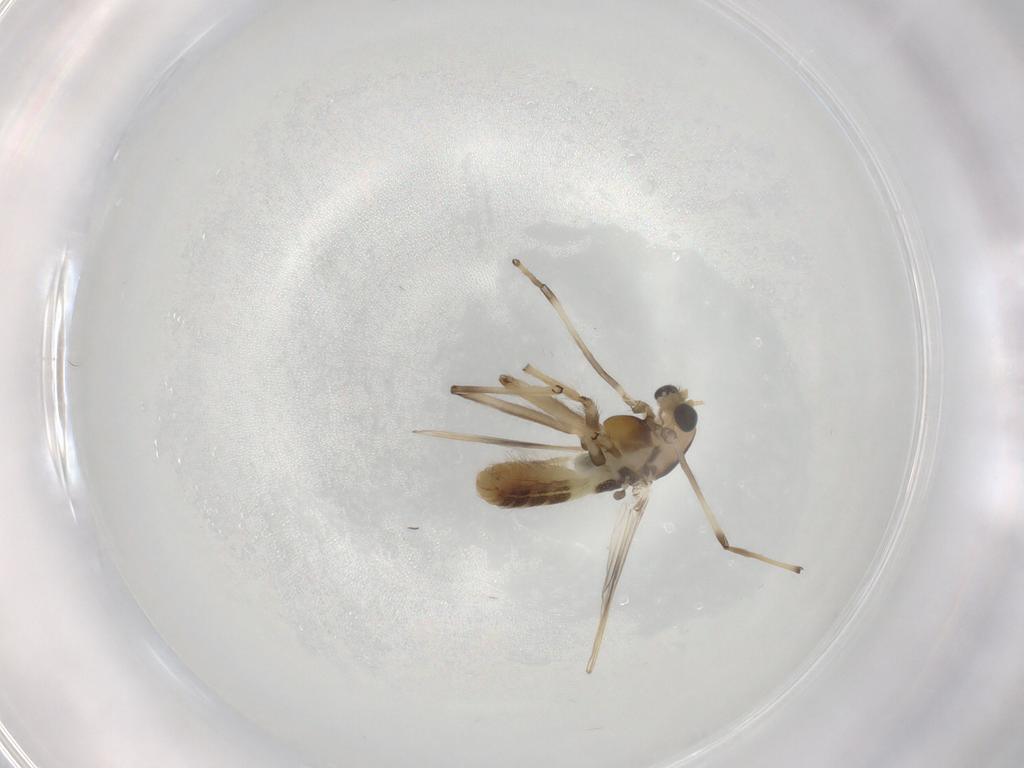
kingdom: Animalia
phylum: Arthropoda
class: Insecta
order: Diptera
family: Chironomidae
